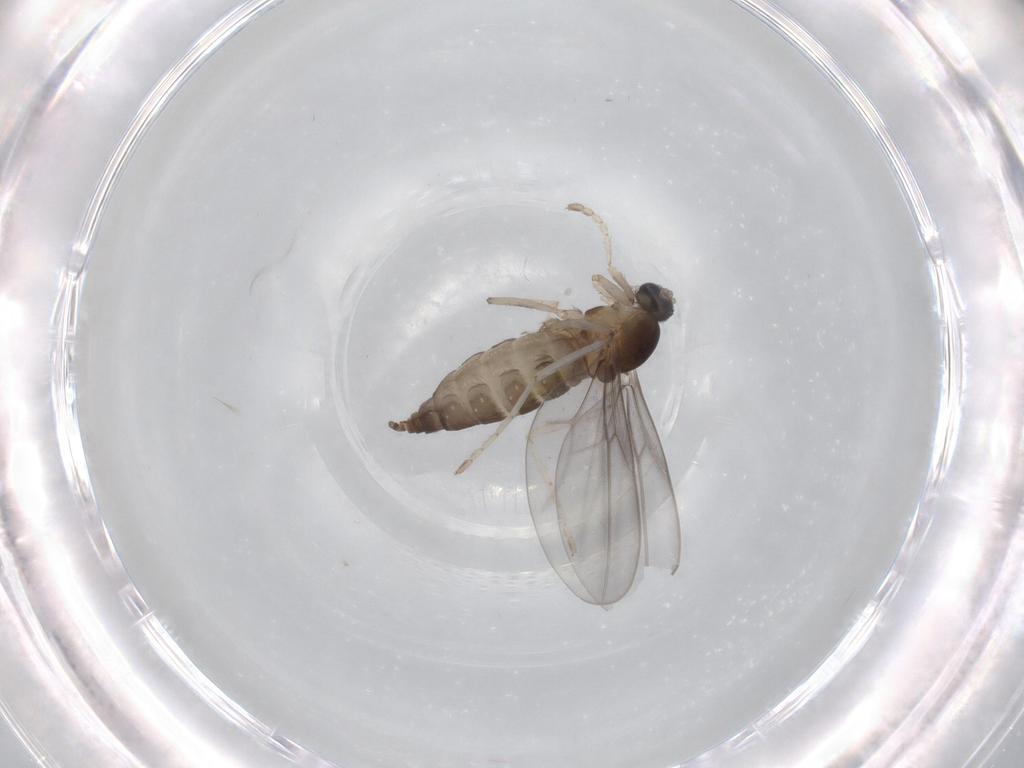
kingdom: Animalia
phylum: Arthropoda
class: Insecta
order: Diptera
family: Sciaridae
